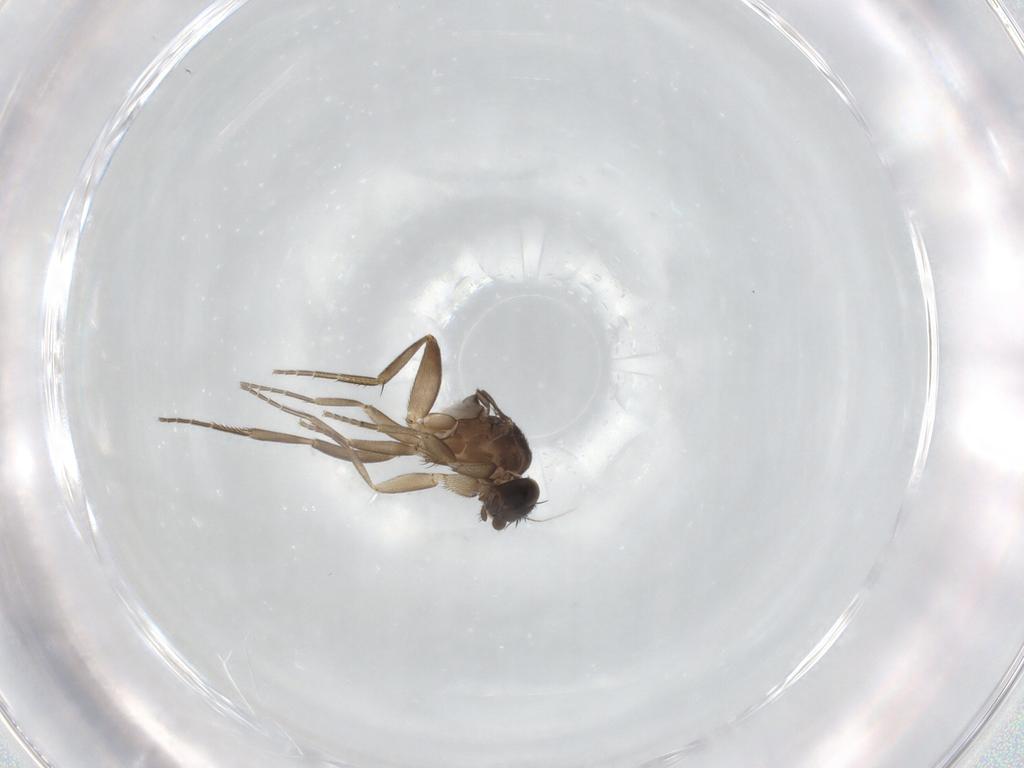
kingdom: Animalia
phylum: Arthropoda
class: Insecta
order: Diptera
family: Phoridae
